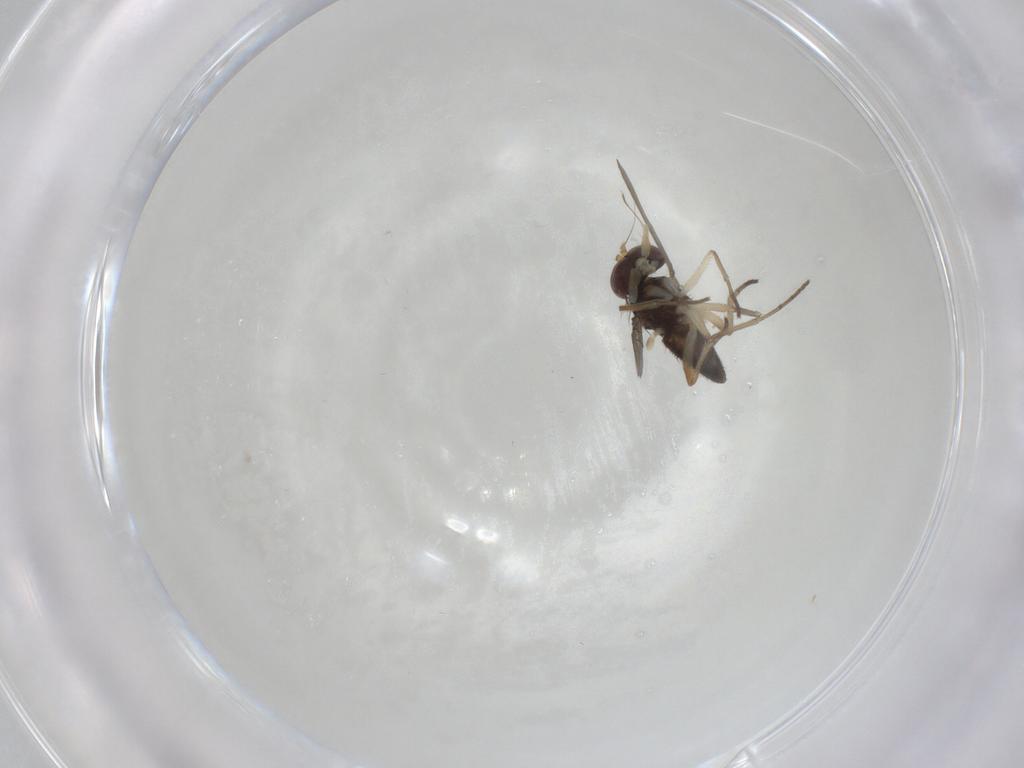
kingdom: Animalia
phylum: Arthropoda
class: Insecta
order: Diptera
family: Dolichopodidae
